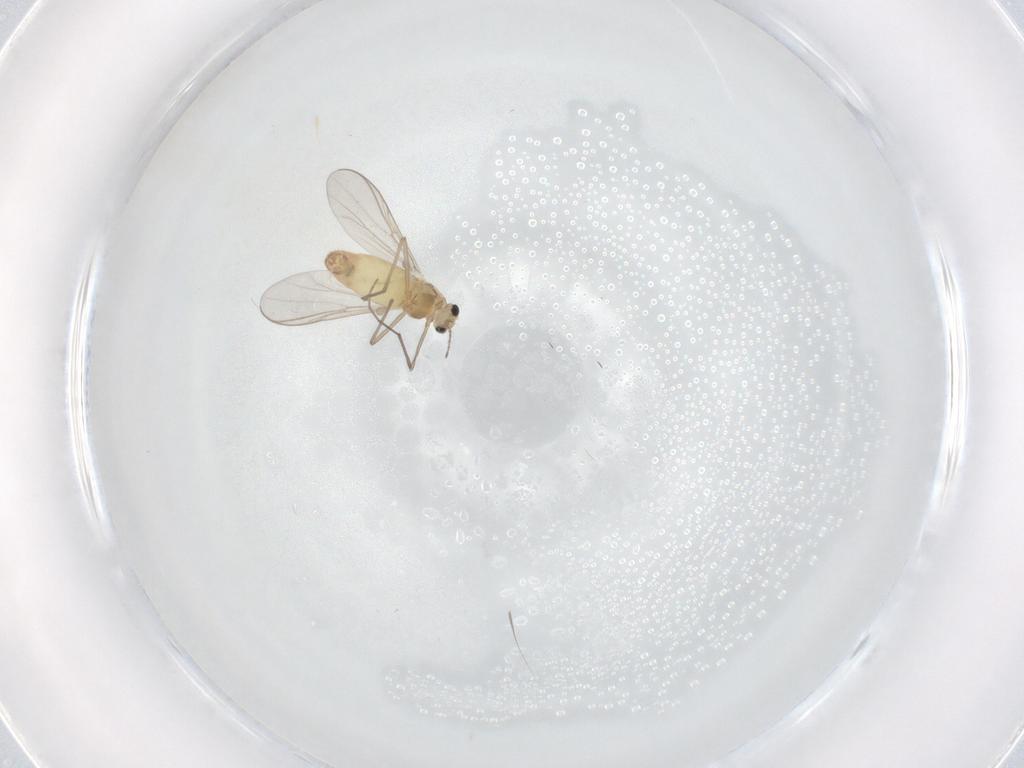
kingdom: Animalia
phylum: Arthropoda
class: Insecta
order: Diptera
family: Chironomidae
